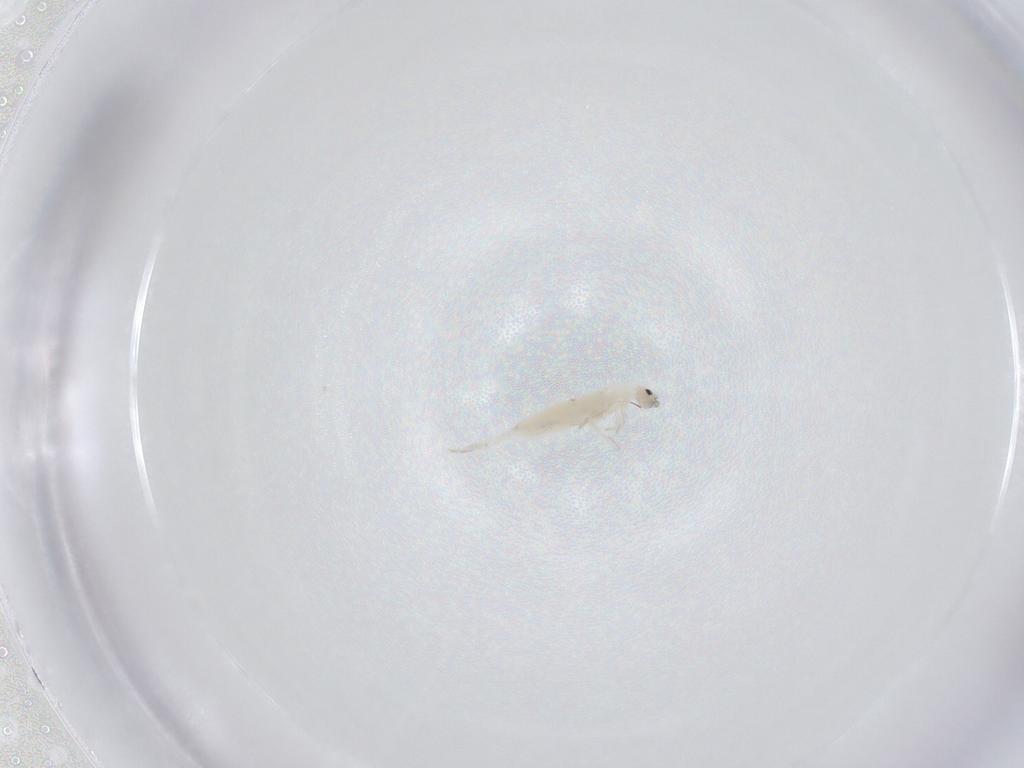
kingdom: Animalia
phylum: Arthropoda
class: Collembola
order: Entomobryomorpha
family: Entomobryidae
